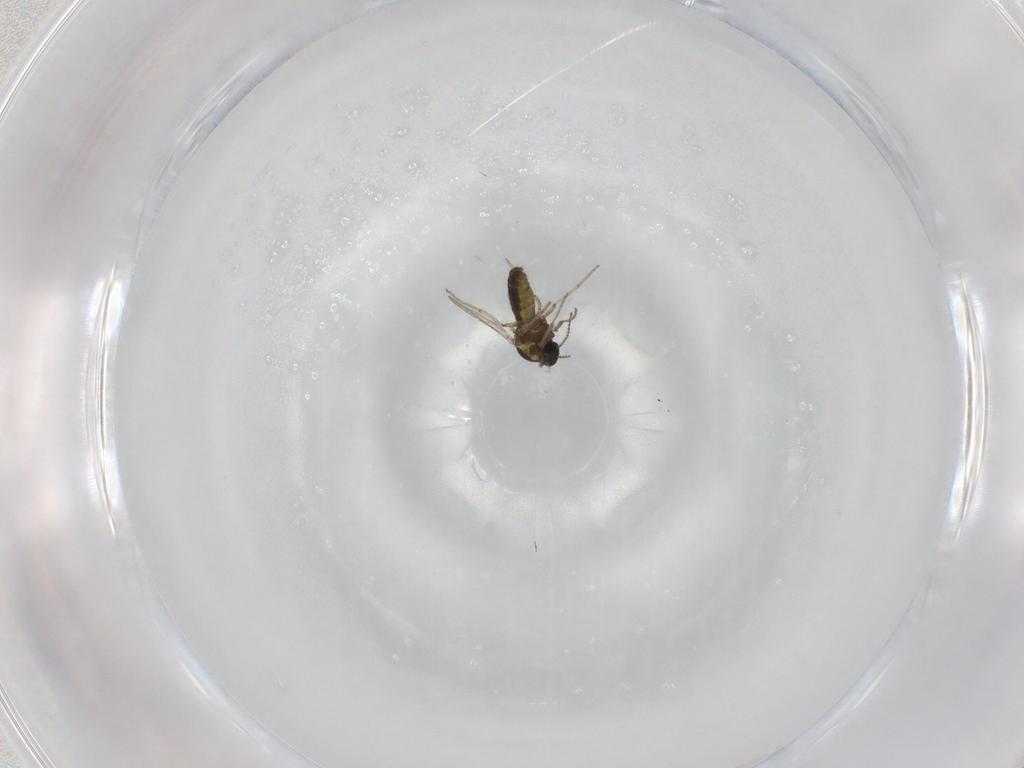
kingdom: Animalia
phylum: Arthropoda
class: Insecta
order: Diptera
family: Ceratopogonidae
